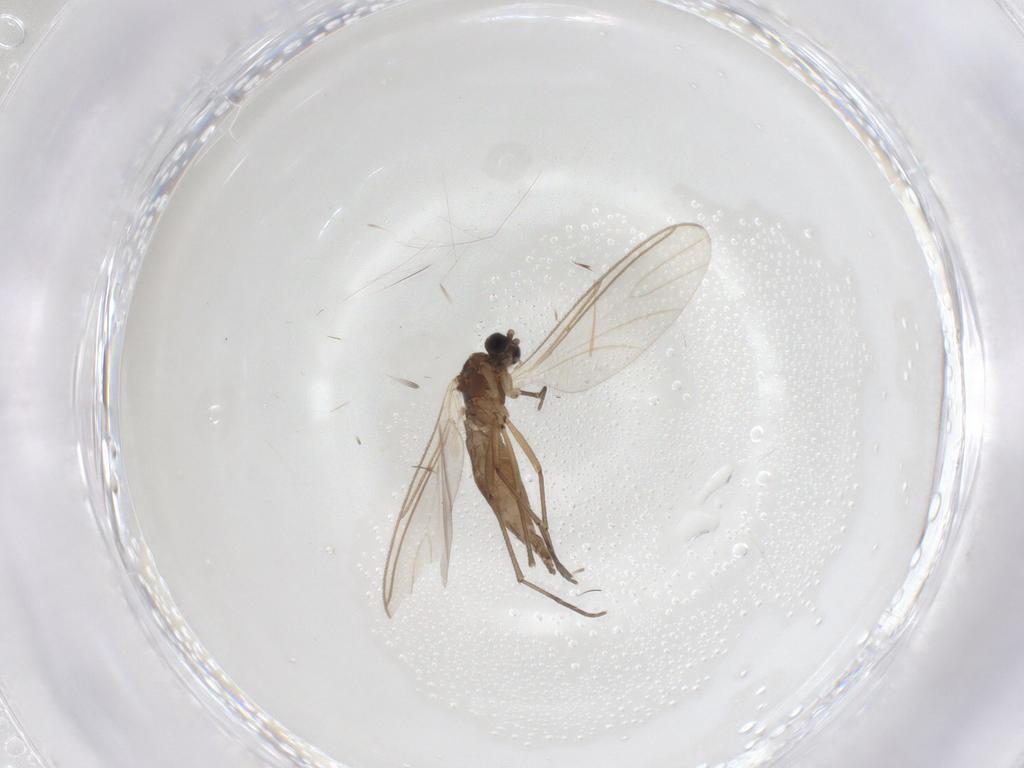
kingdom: Animalia
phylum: Arthropoda
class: Insecta
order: Diptera
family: Sciaridae
